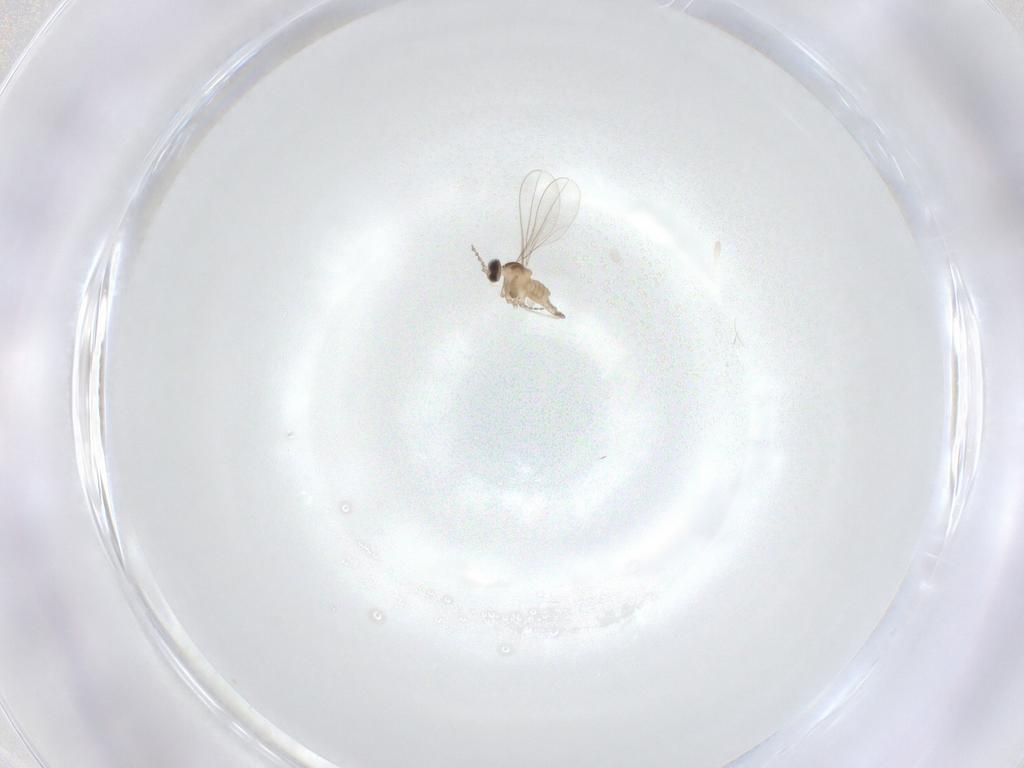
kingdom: Animalia
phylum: Arthropoda
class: Insecta
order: Diptera
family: Cecidomyiidae
